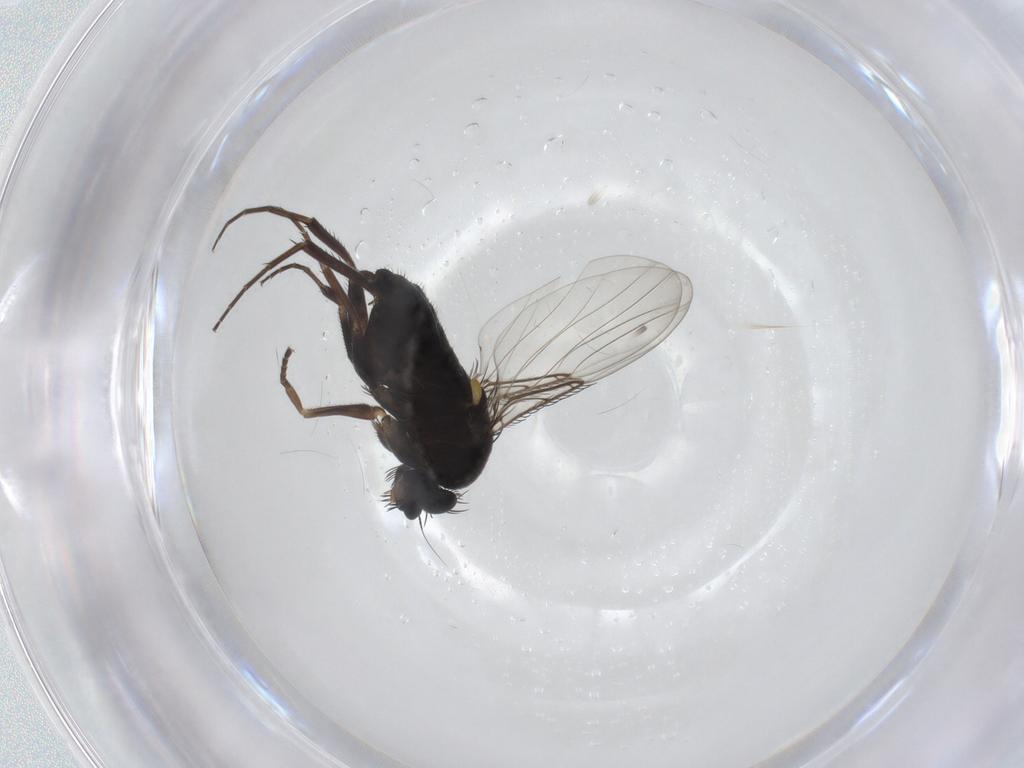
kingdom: Animalia
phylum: Arthropoda
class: Insecta
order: Diptera
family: Phoridae
